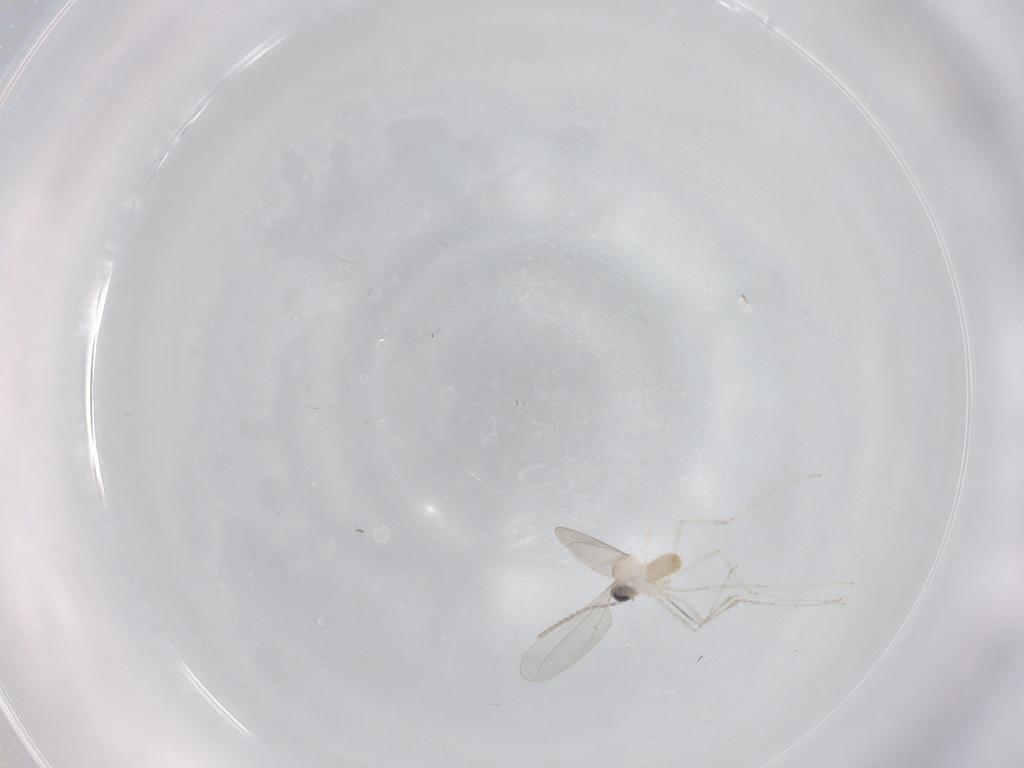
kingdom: Animalia
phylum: Arthropoda
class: Insecta
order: Diptera
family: Cecidomyiidae
